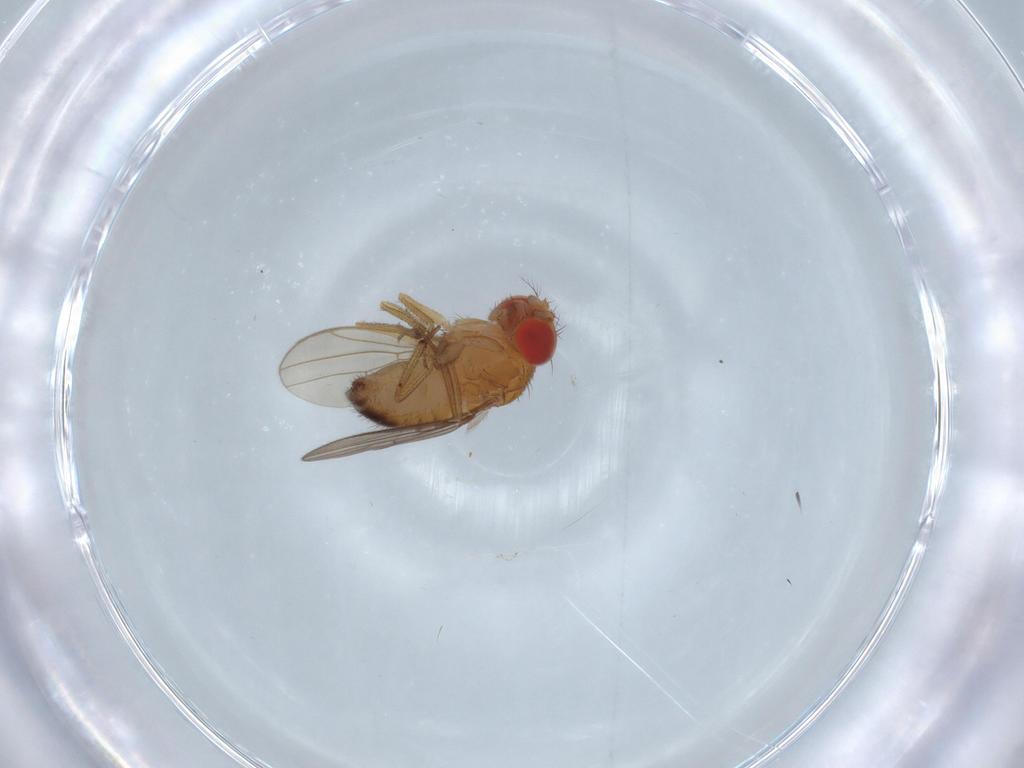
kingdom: Animalia
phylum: Arthropoda
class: Insecta
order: Diptera
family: Drosophilidae
